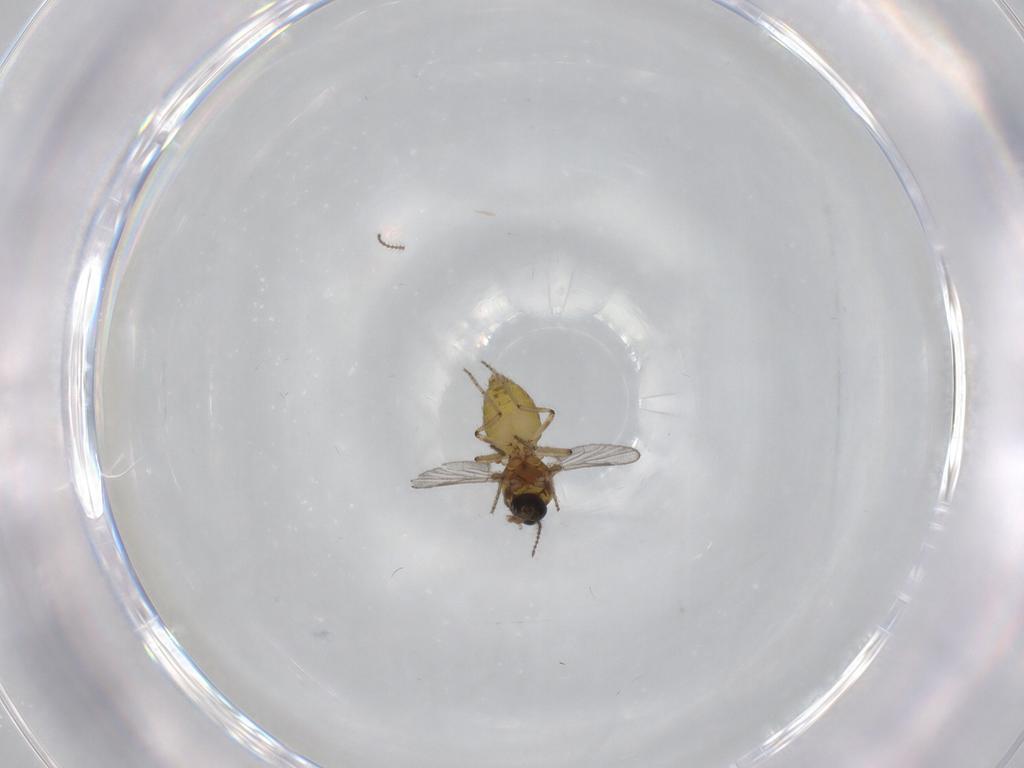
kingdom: Animalia
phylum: Arthropoda
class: Insecta
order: Diptera
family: Ceratopogonidae
